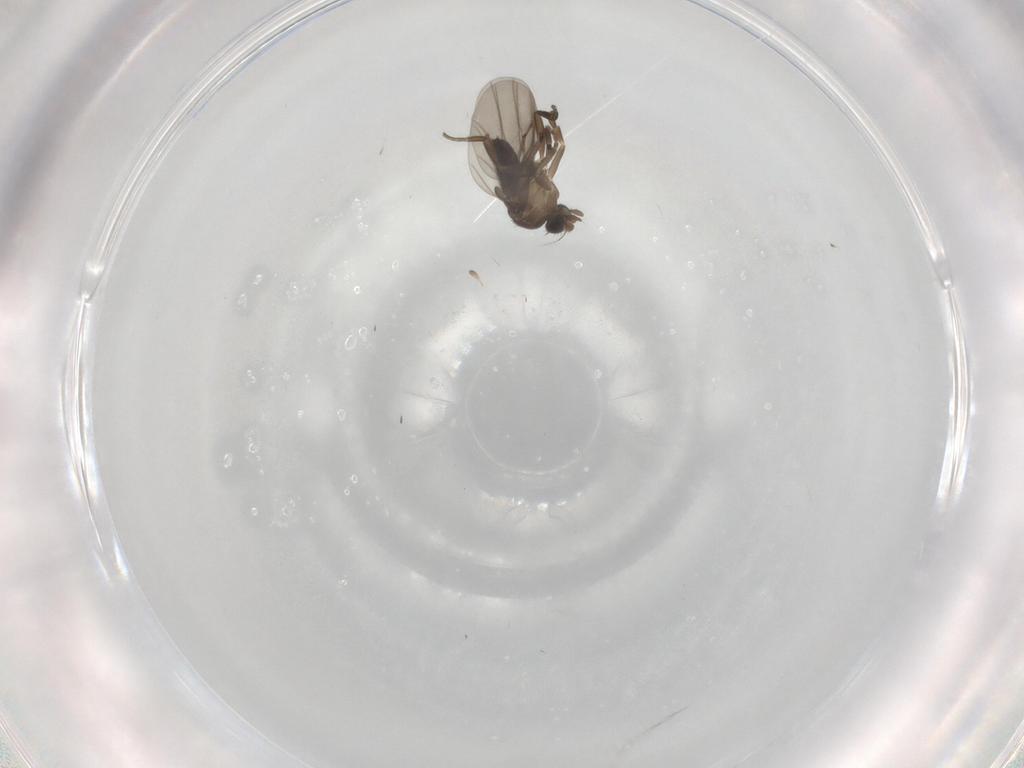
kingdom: Animalia
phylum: Arthropoda
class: Insecta
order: Diptera
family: Phoridae
